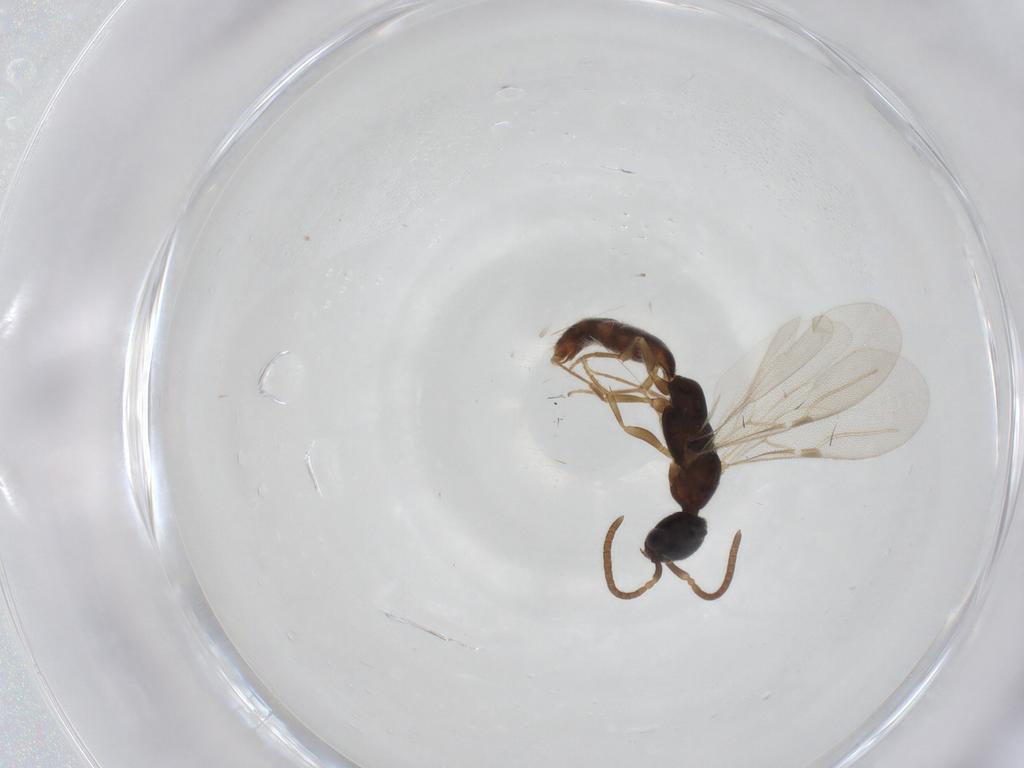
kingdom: Animalia
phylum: Arthropoda
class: Insecta
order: Hymenoptera
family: Bethylidae
